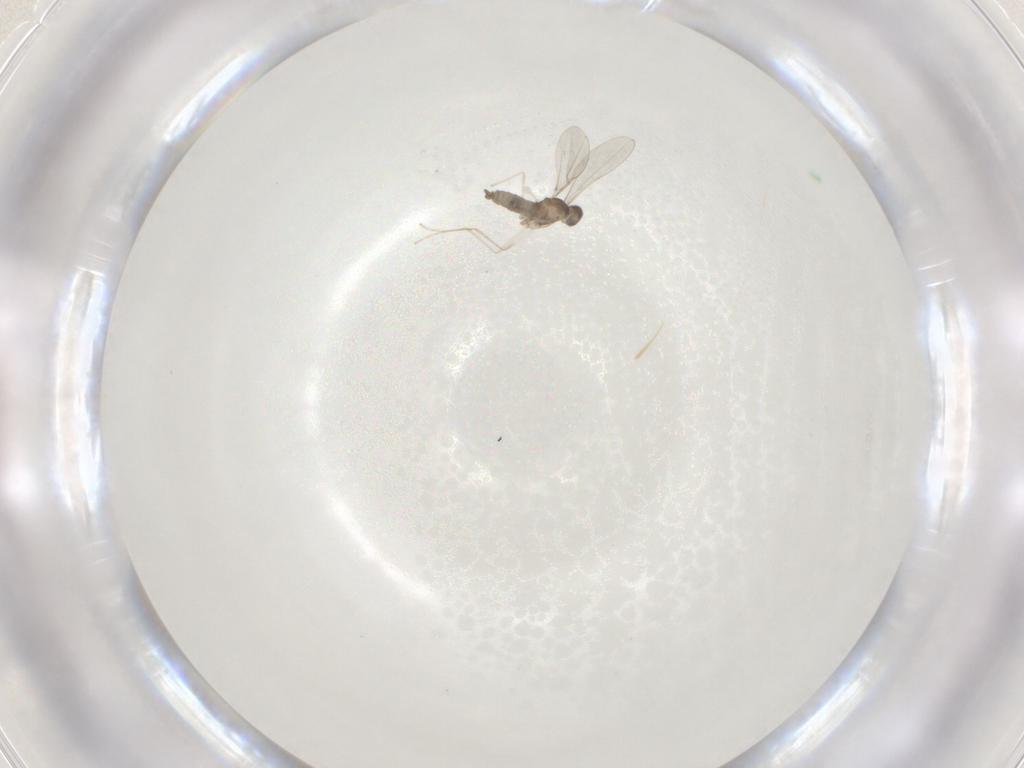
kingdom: Animalia
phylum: Arthropoda
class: Insecta
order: Diptera
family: Cecidomyiidae
